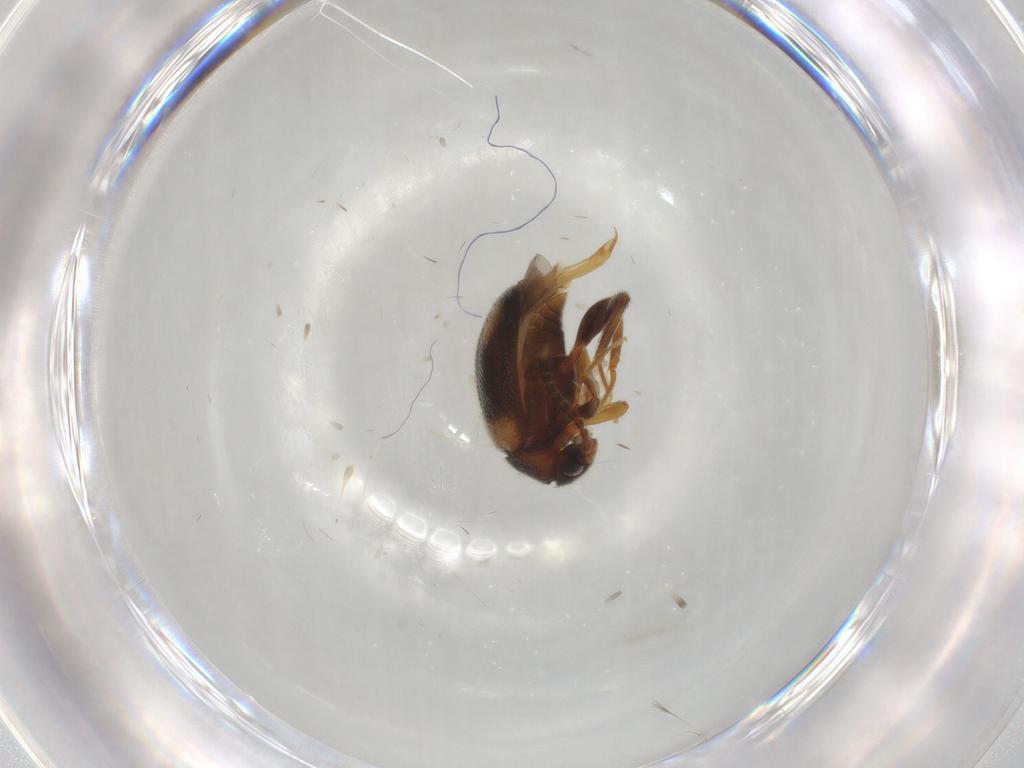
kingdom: Animalia
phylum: Arthropoda
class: Insecta
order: Coleoptera
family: Aderidae
